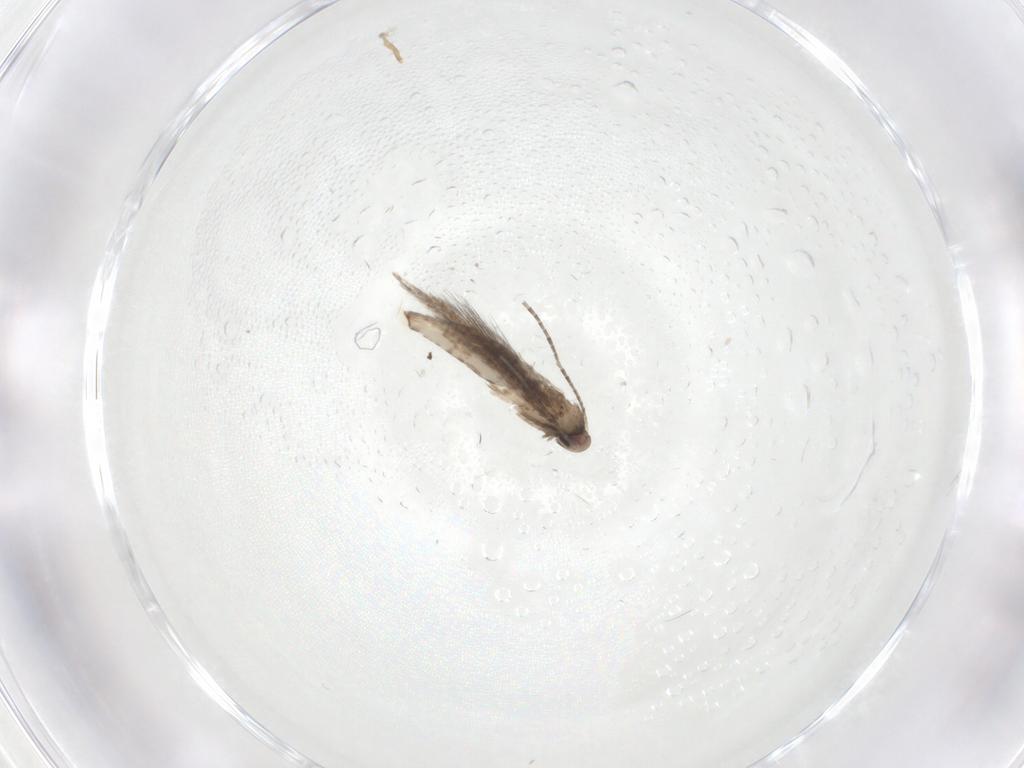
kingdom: Animalia
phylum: Arthropoda
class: Insecta
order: Lepidoptera
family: Gracillariidae
